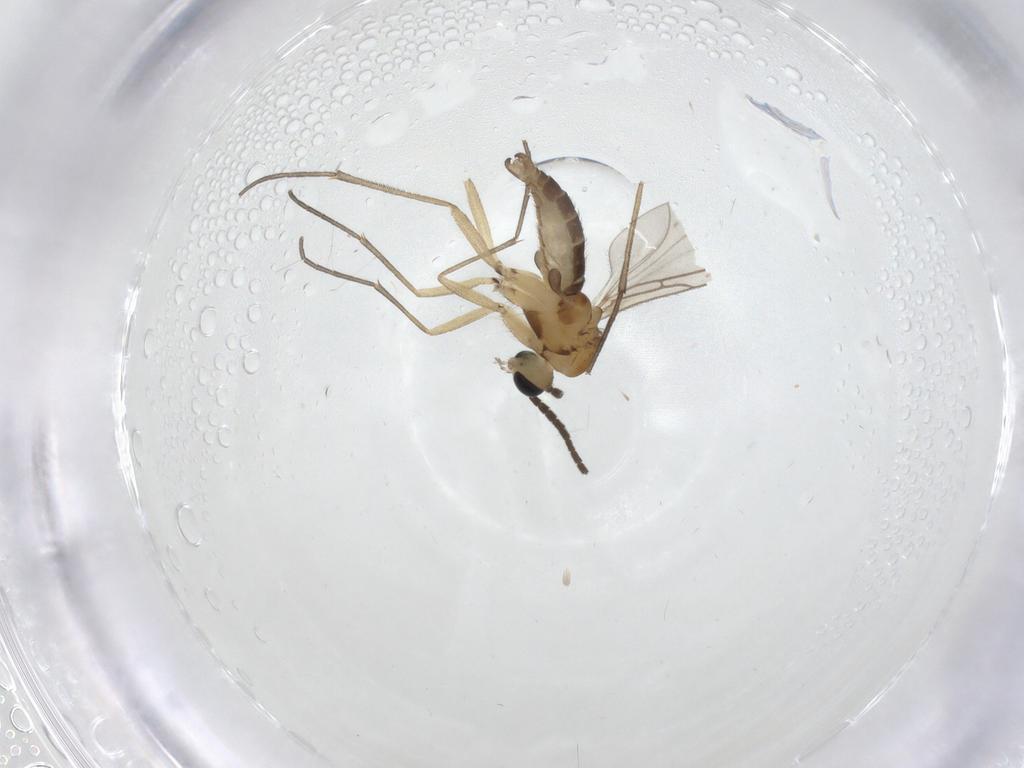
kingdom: Animalia
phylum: Arthropoda
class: Insecta
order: Diptera
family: Sciaridae
